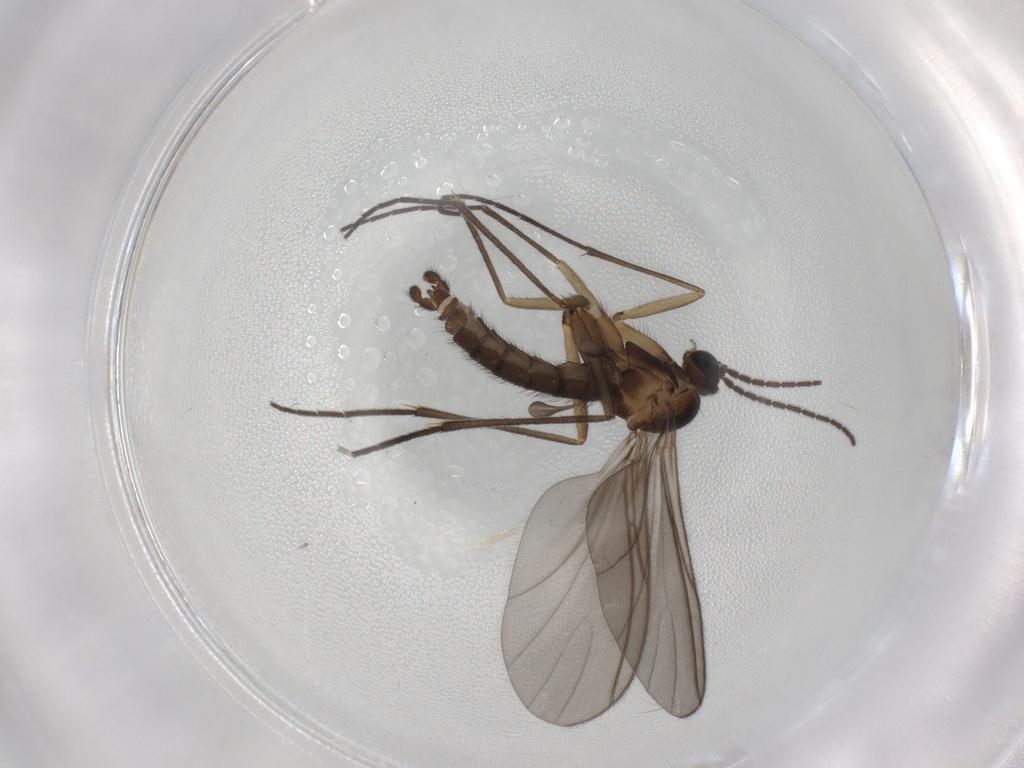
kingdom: Animalia
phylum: Arthropoda
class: Insecta
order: Diptera
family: Sciaridae
